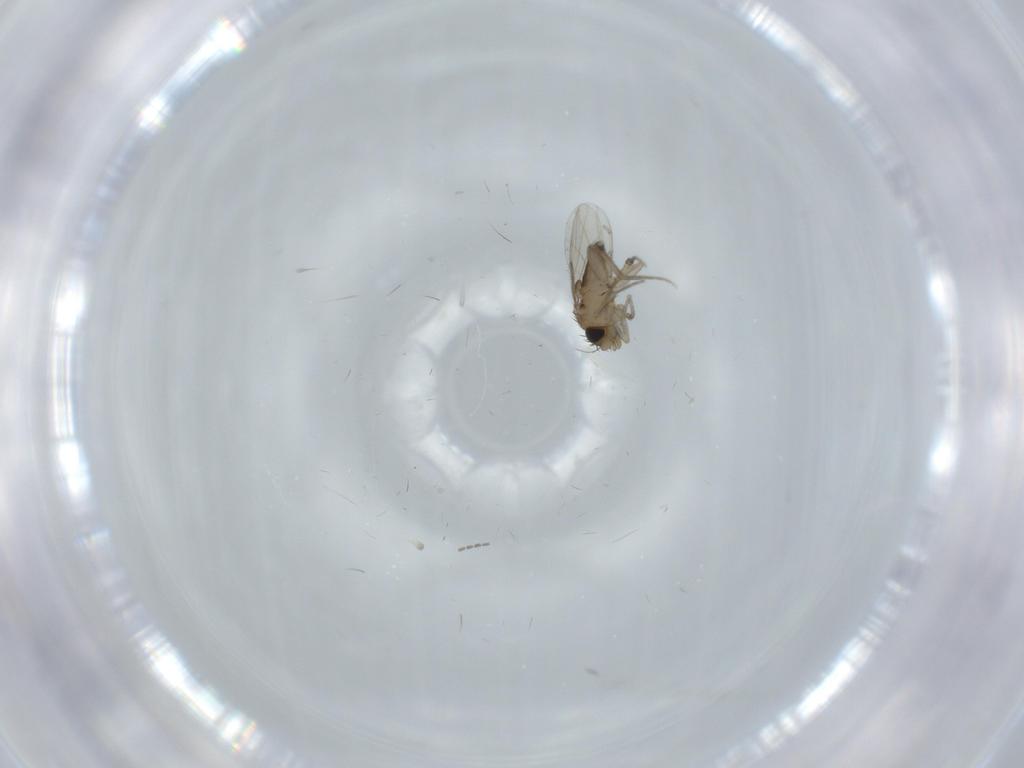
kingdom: Animalia
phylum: Arthropoda
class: Insecta
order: Diptera
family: Phoridae
